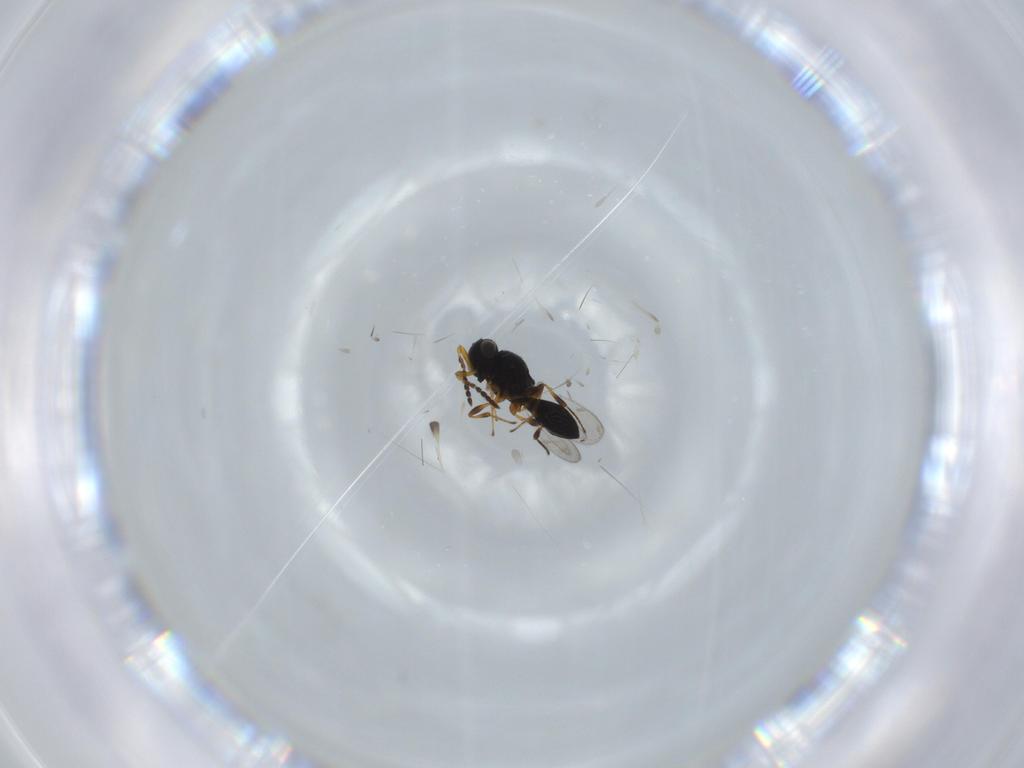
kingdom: Animalia
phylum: Arthropoda
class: Insecta
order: Hymenoptera
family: Platygastridae
